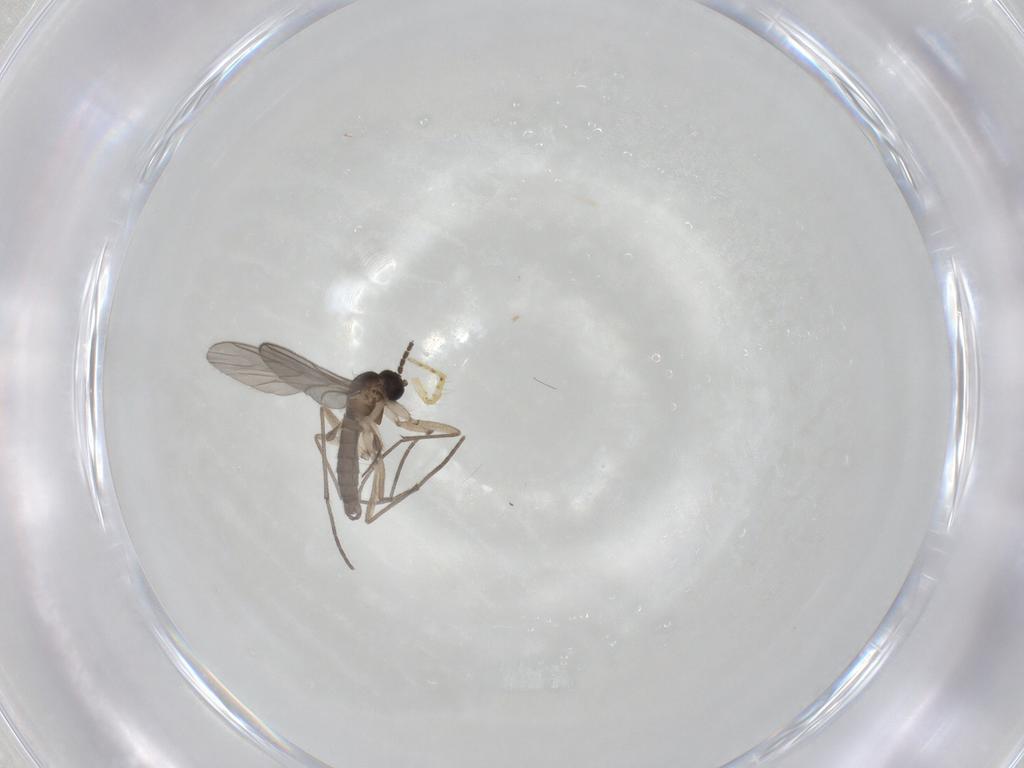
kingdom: Animalia
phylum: Arthropoda
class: Insecta
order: Diptera
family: Sciaridae
